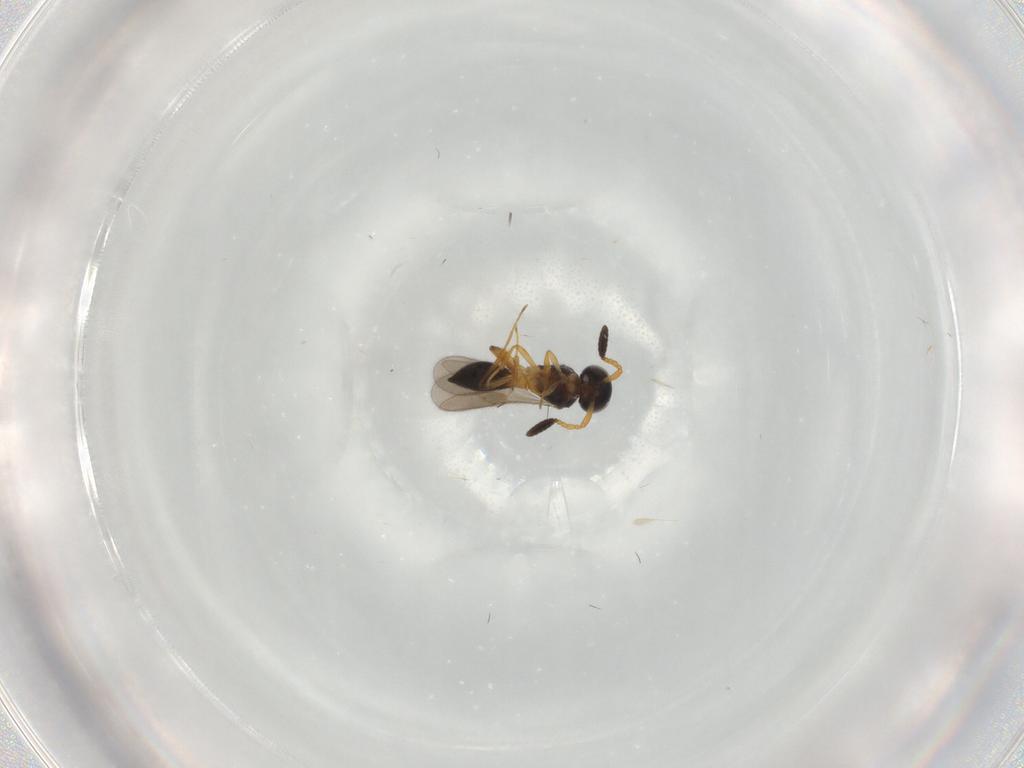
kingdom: Animalia
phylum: Arthropoda
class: Insecta
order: Hymenoptera
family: Scelionidae
